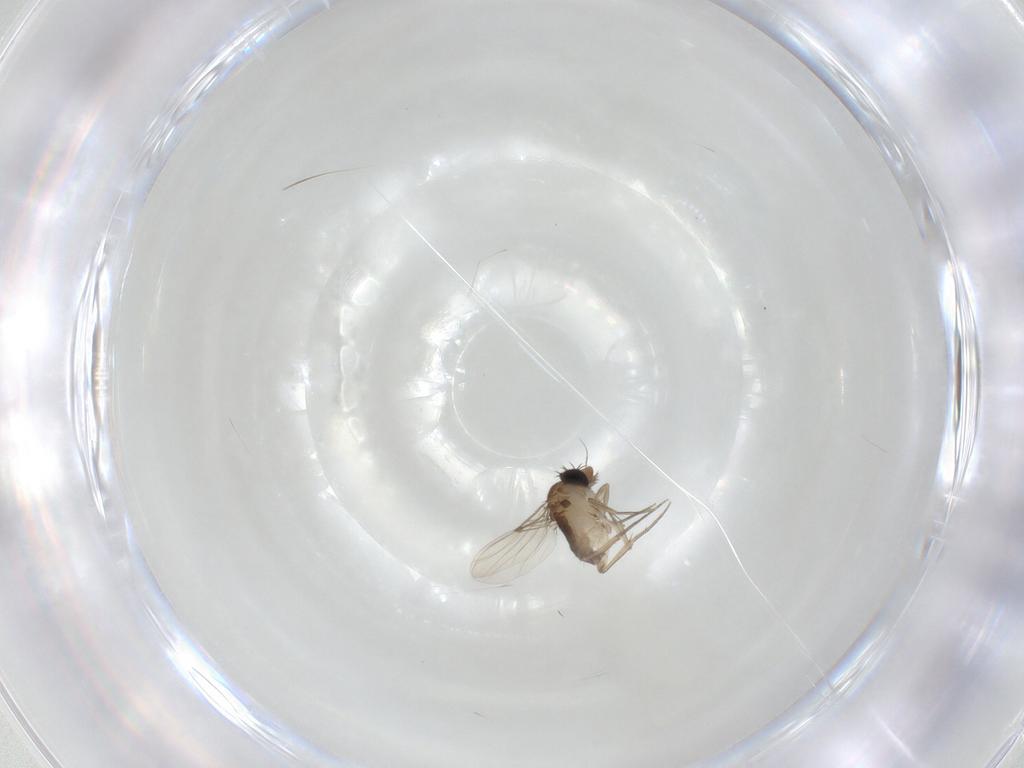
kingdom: Animalia
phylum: Arthropoda
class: Insecta
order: Diptera
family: Phoridae
